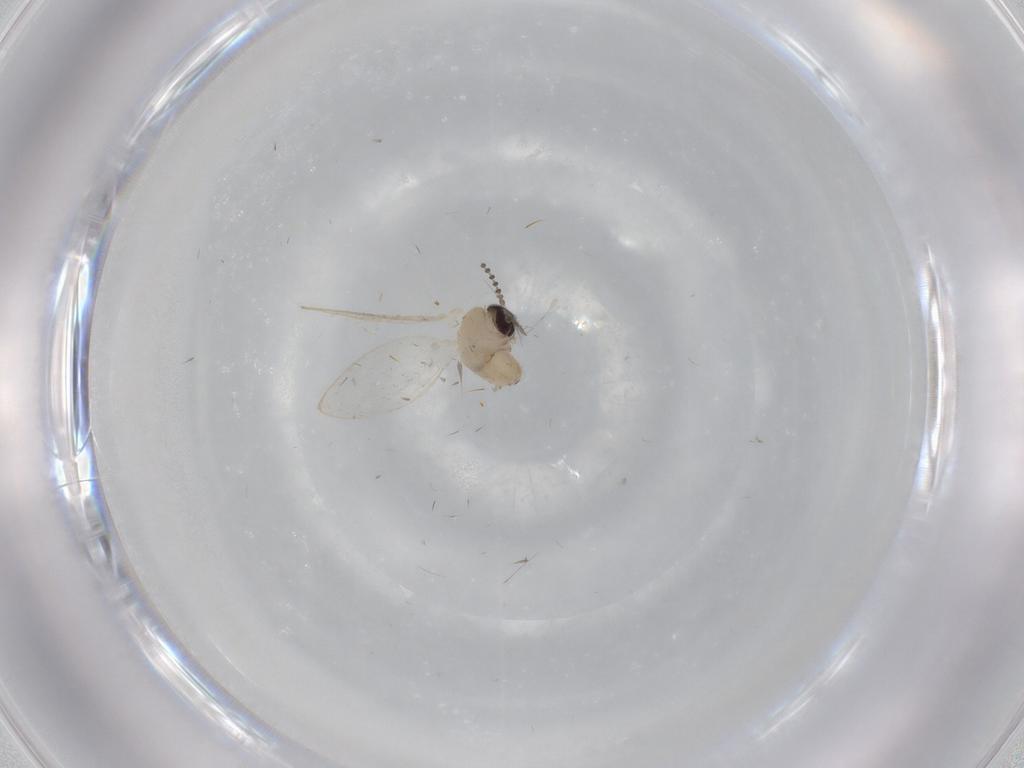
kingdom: Animalia
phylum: Arthropoda
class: Insecta
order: Diptera
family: Psychodidae
